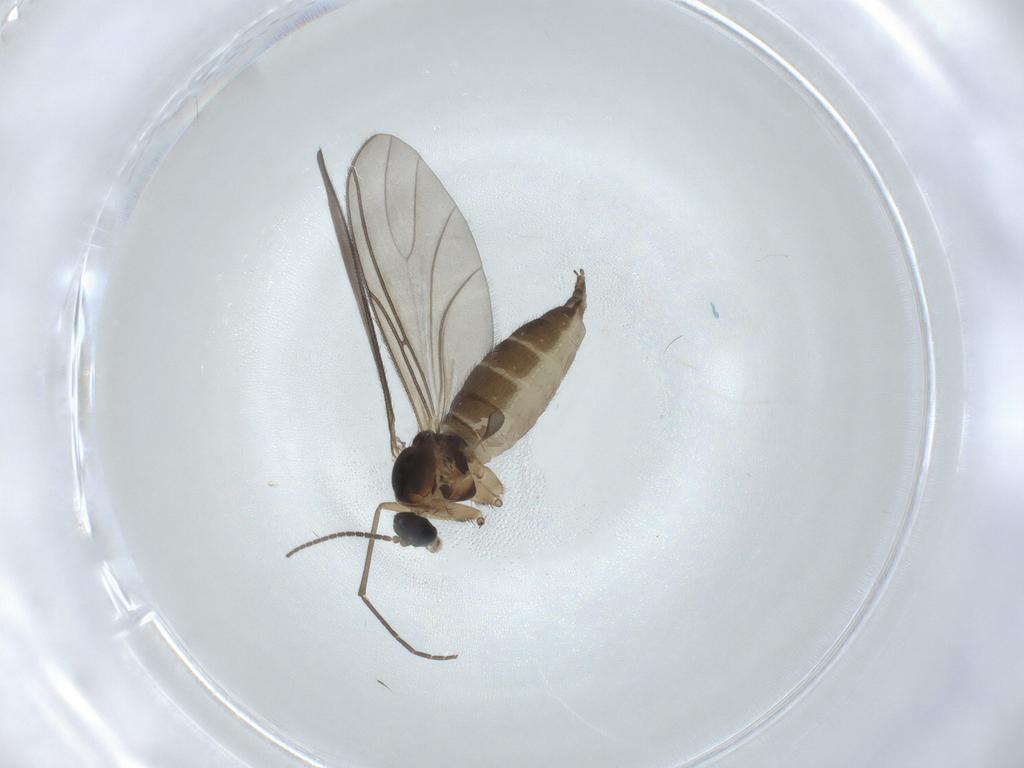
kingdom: Animalia
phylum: Arthropoda
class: Insecta
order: Diptera
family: Sciaridae
